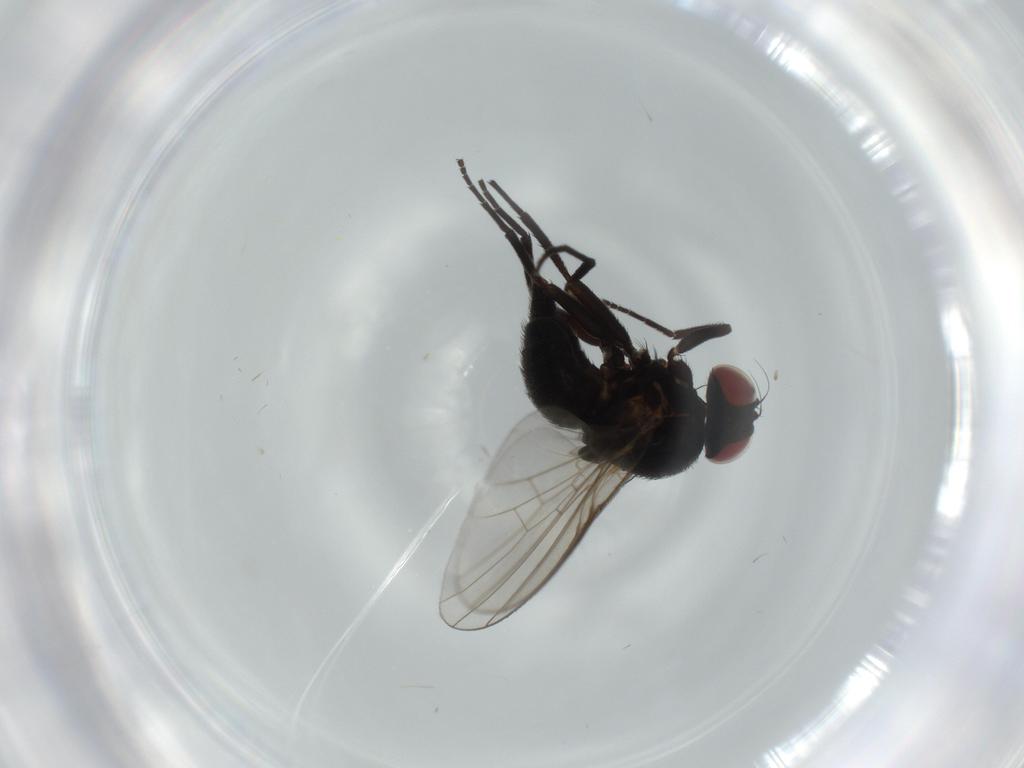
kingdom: Animalia
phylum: Arthropoda
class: Insecta
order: Diptera
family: Agromyzidae
